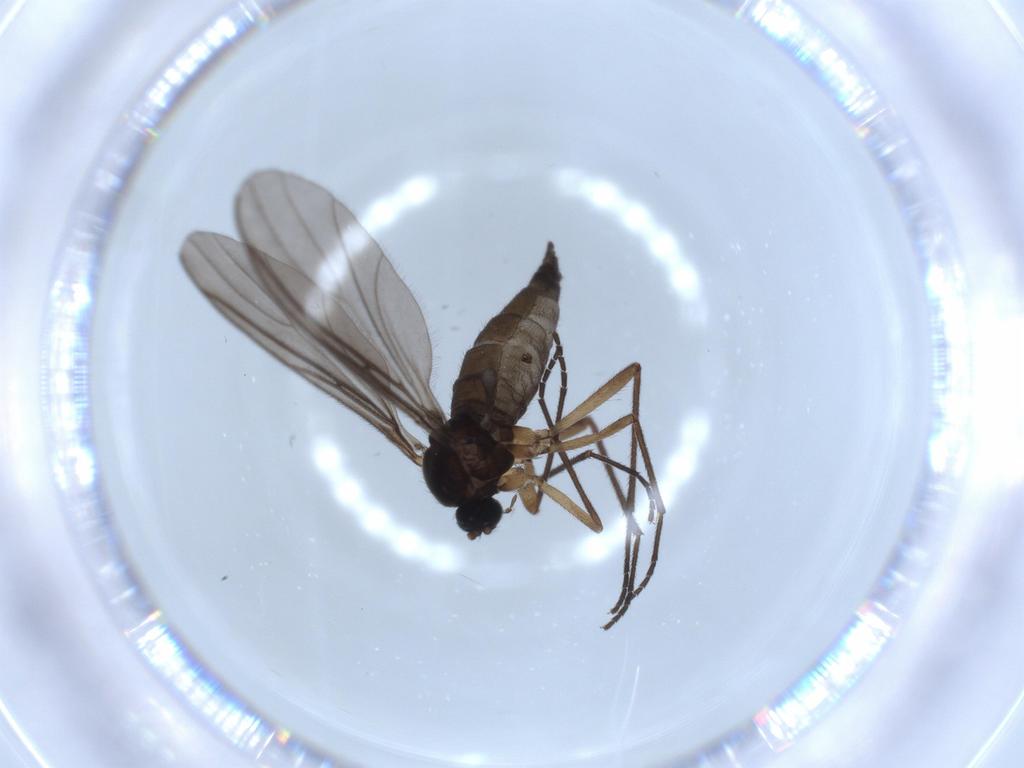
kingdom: Animalia
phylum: Arthropoda
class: Insecta
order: Diptera
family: Sciaridae
